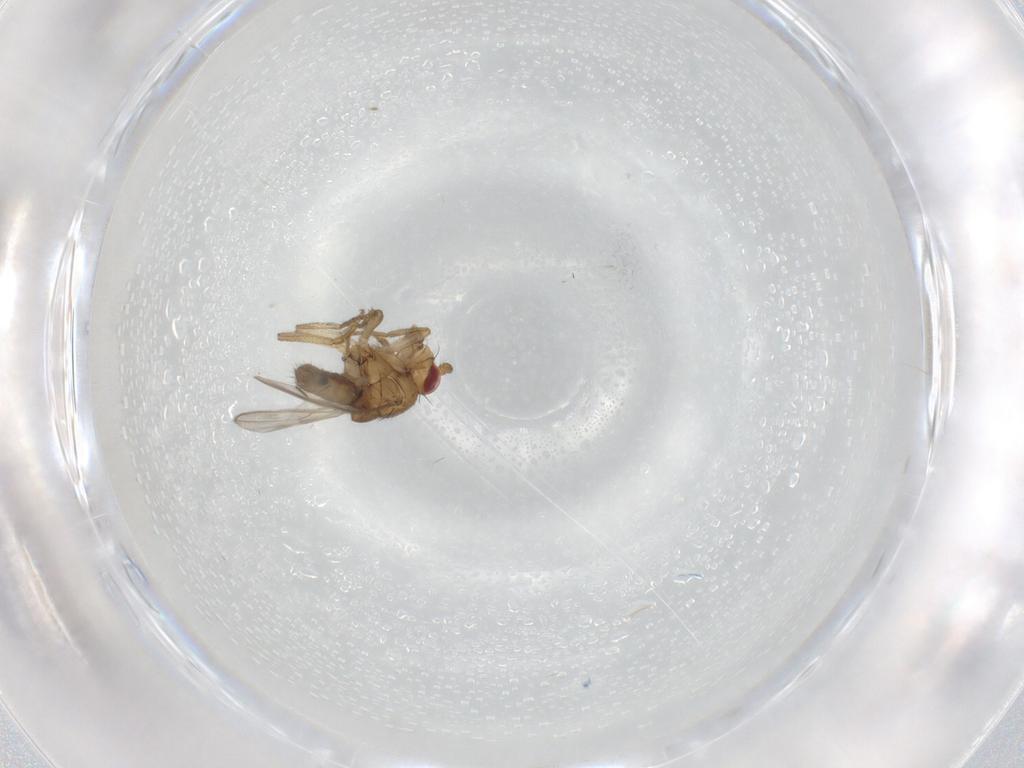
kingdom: Animalia
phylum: Arthropoda
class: Insecta
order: Diptera
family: Sphaeroceridae
